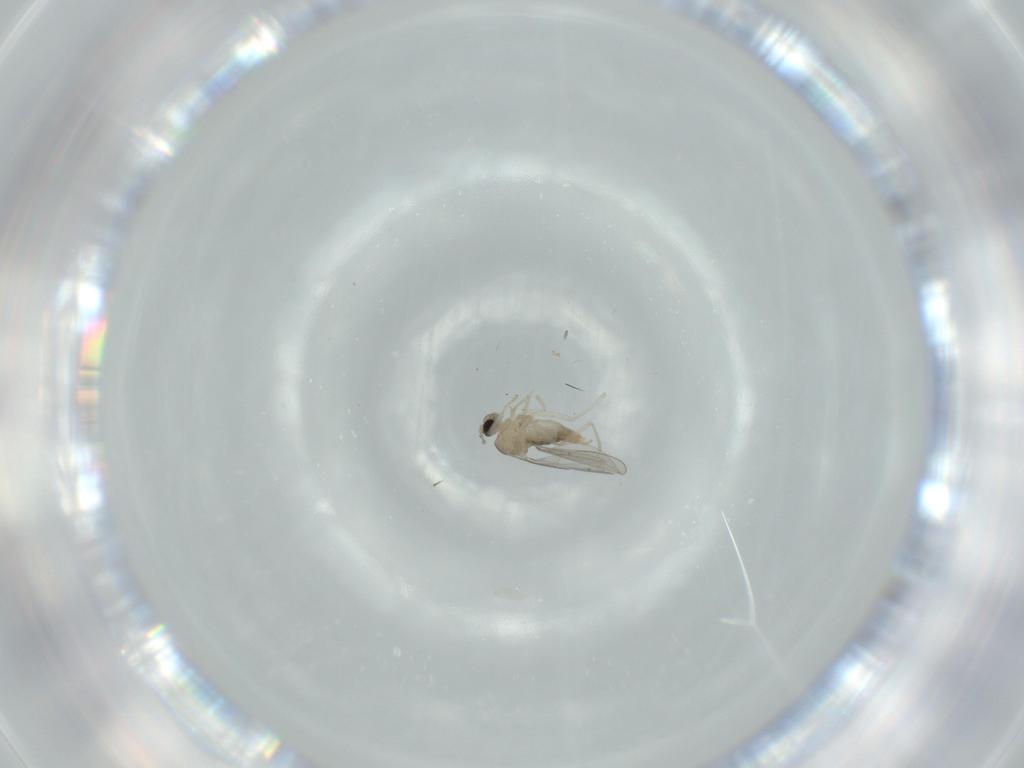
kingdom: Animalia
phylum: Arthropoda
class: Insecta
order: Diptera
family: Cecidomyiidae
